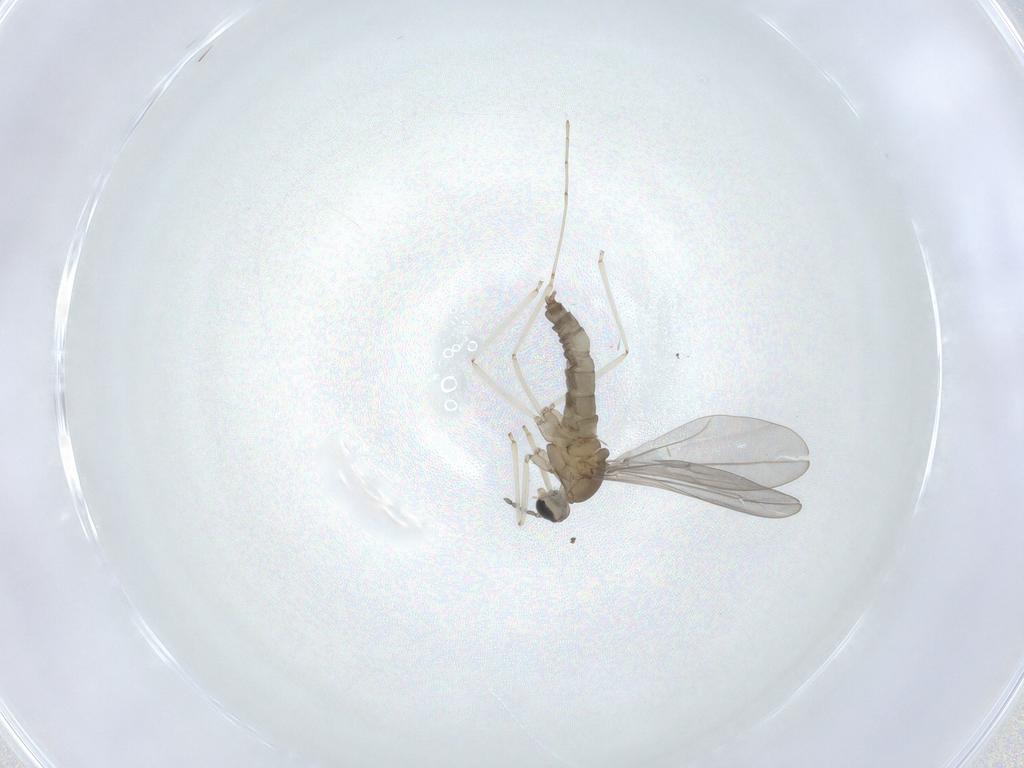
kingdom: Animalia
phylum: Arthropoda
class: Insecta
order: Diptera
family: Cecidomyiidae
